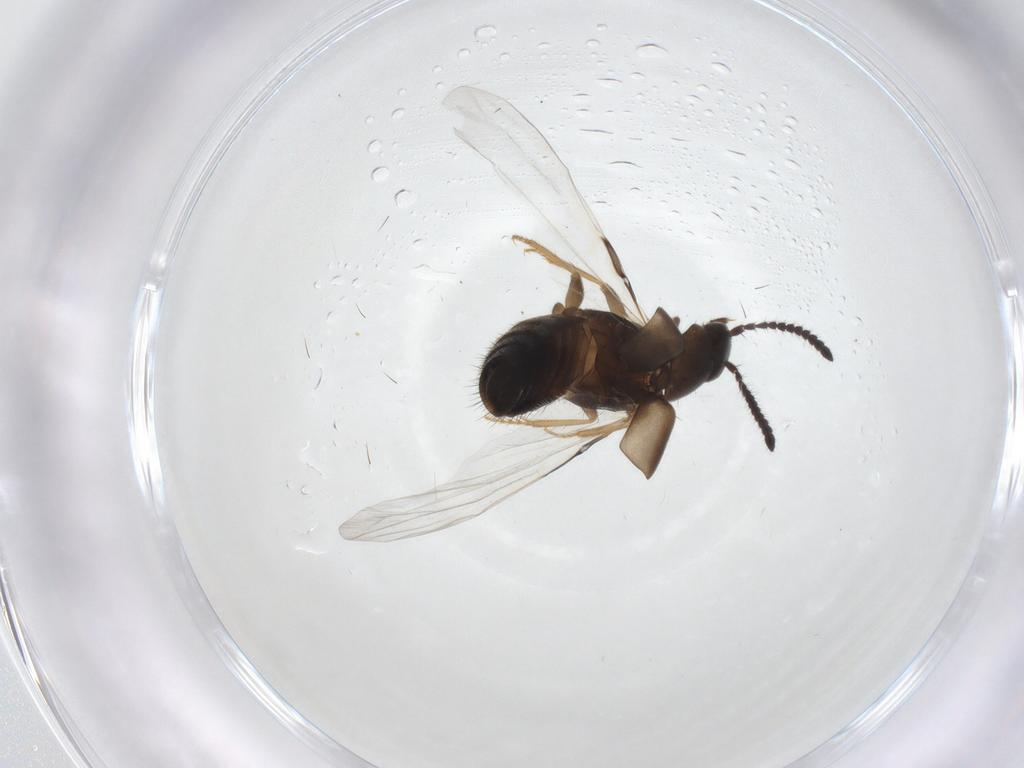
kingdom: Animalia
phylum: Arthropoda
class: Insecta
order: Coleoptera
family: Staphylinidae
